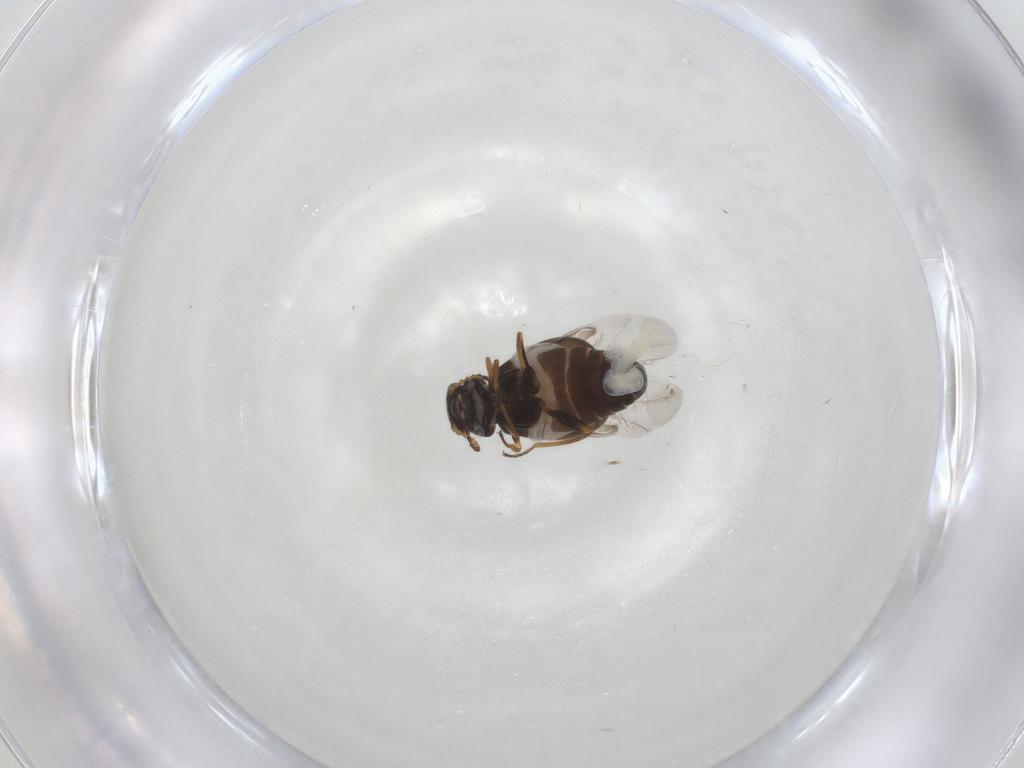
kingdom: Animalia
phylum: Arthropoda
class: Insecta
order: Coleoptera
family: Melyridae
